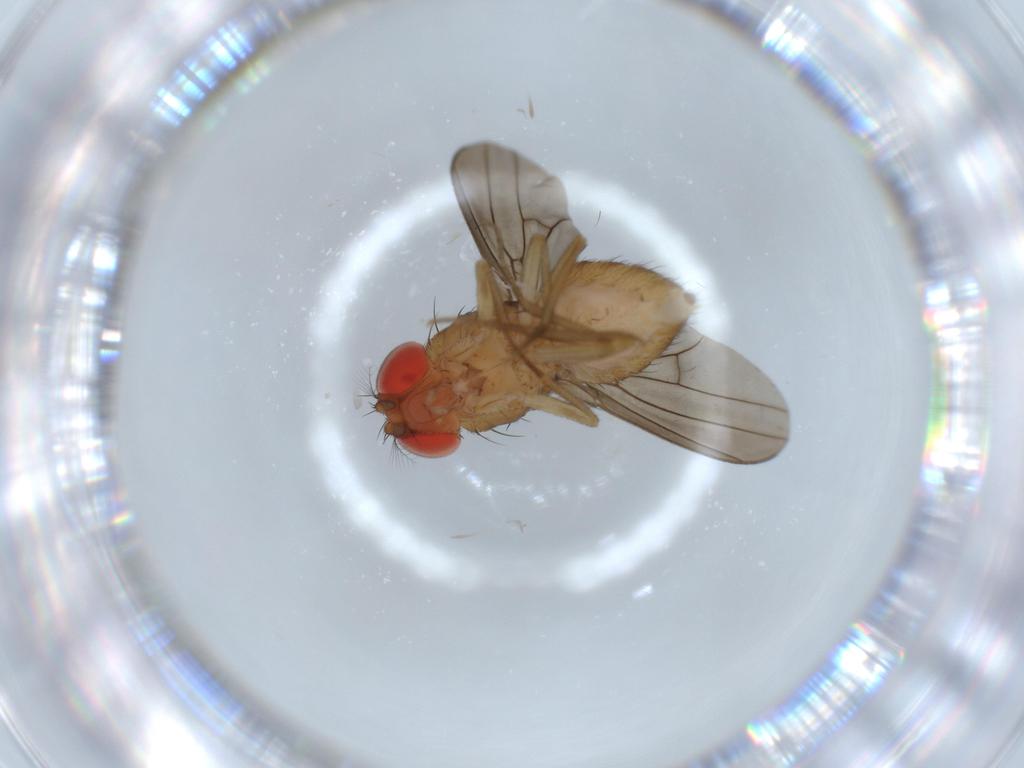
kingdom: Animalia
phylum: Arthropoda
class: Insecta
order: Diptera
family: Drosophilidae
